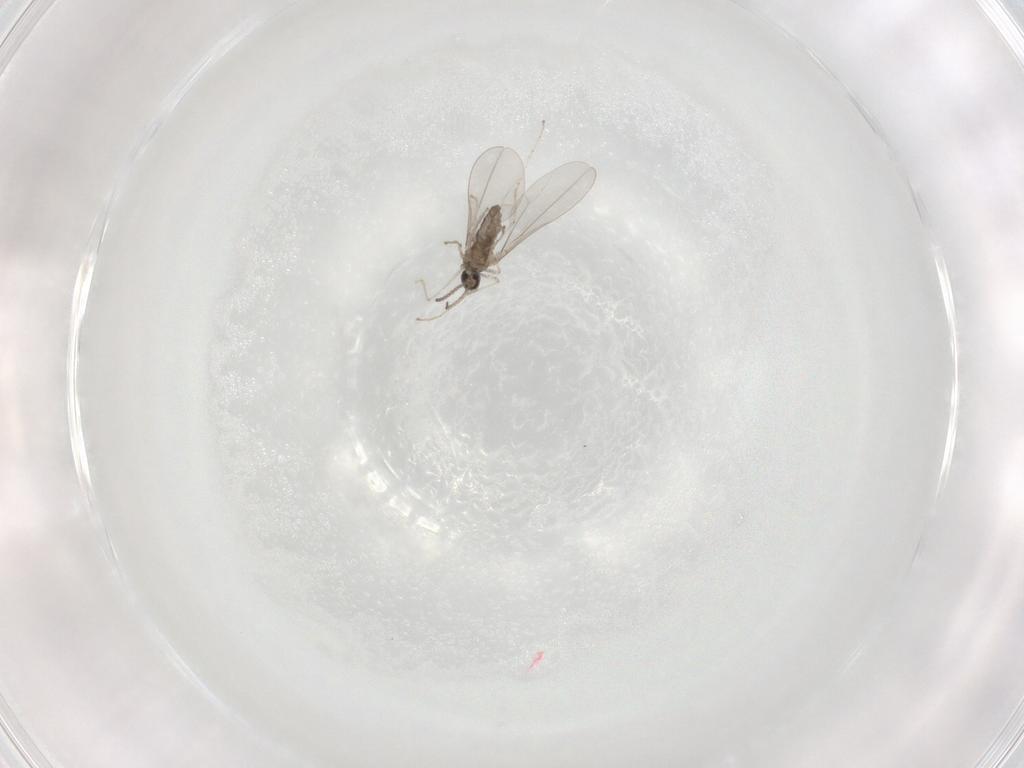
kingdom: Animalia
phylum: Arthropoda
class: Insecta
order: Diptera
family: Cecidomyiidae
